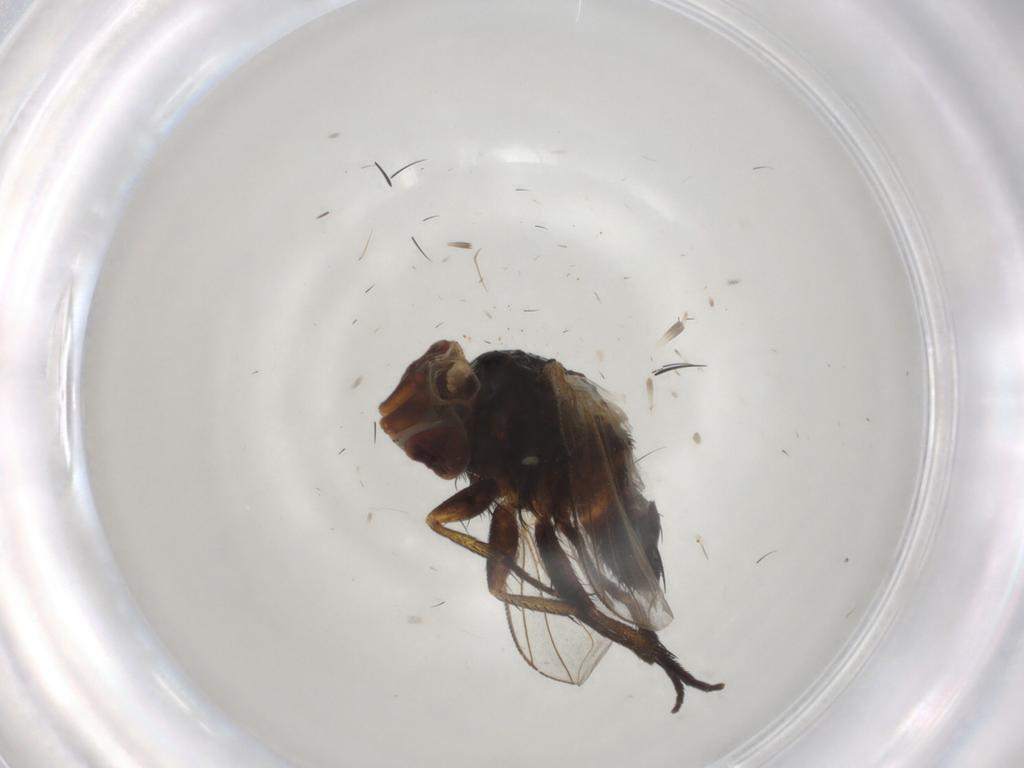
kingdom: Animalia
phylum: Arthropoda
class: Insecta
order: Diptera
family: Glossinidae
